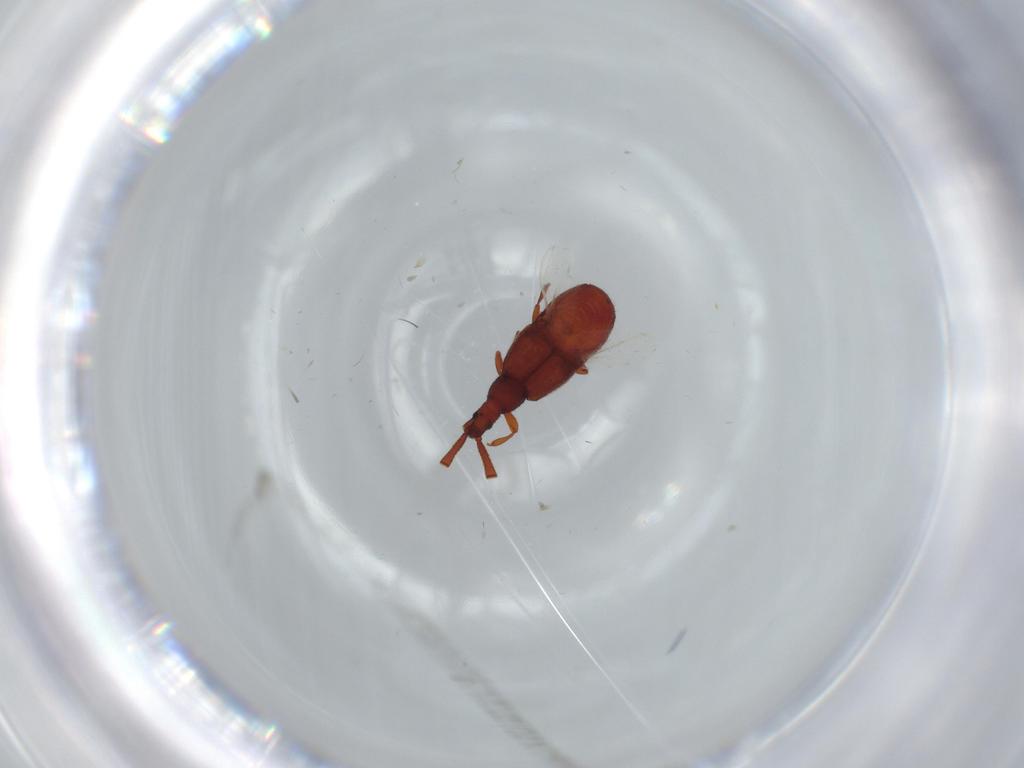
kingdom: Animalia
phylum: Arthropoda
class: Insecta
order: Coleoptera
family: Staphylinidae
